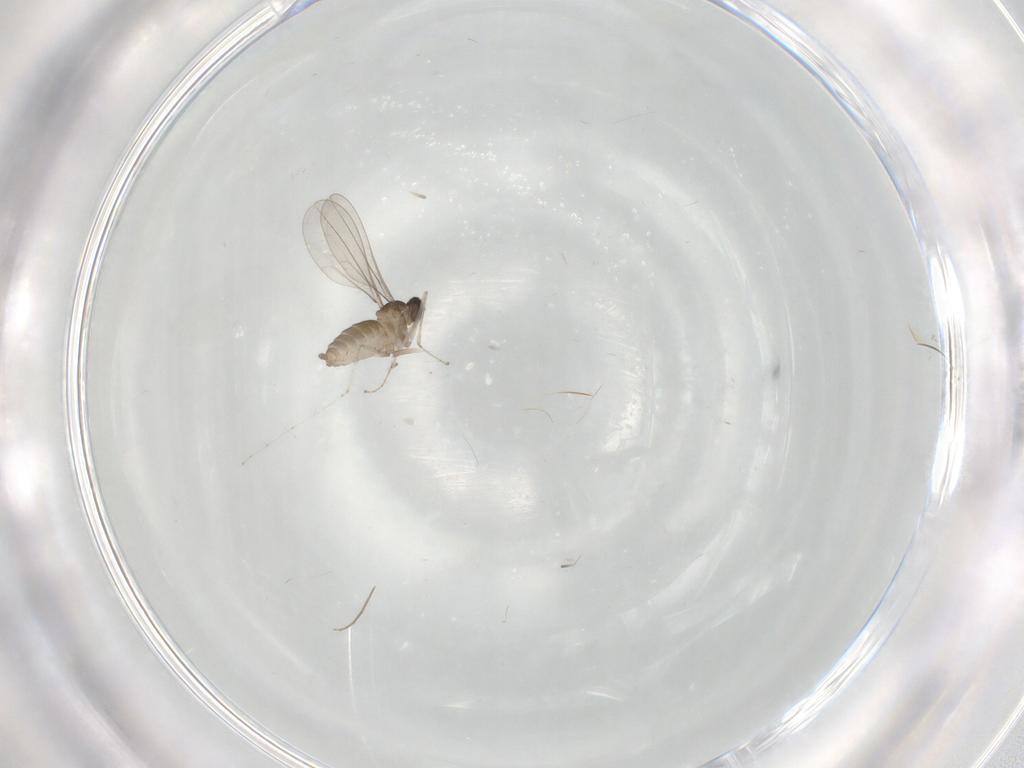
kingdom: Animalia
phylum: Arthropoda
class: Insecta
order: Diptera
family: Cecidomyiidae
